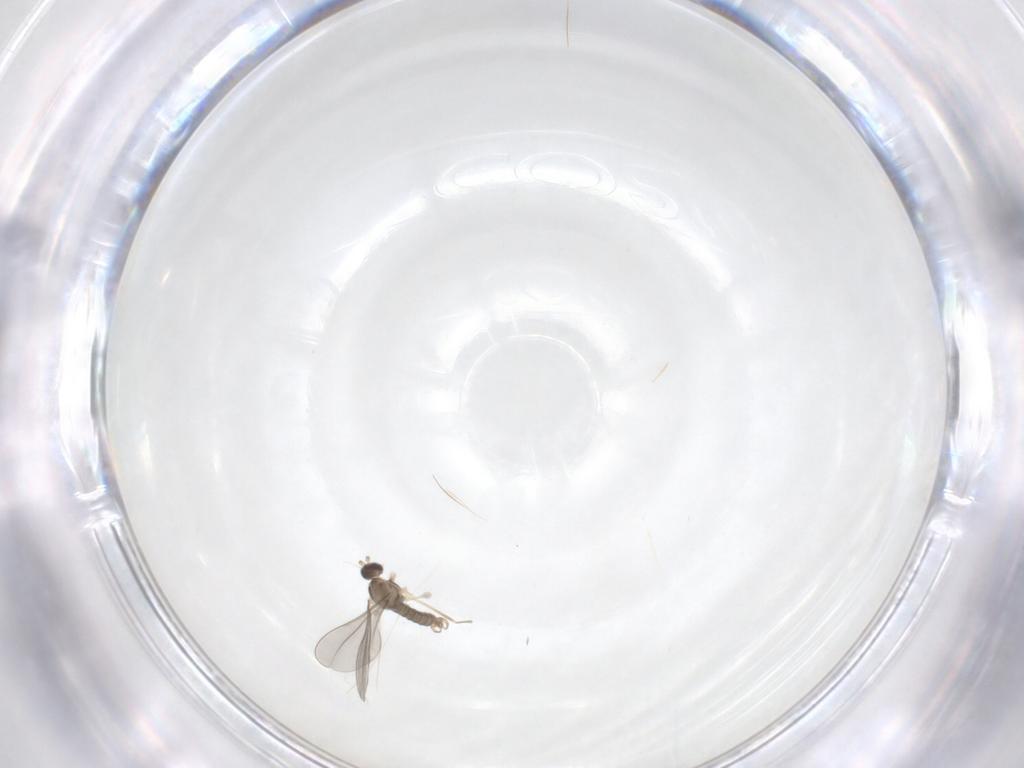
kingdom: Animalia
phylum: Arthropoda
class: Insecta
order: Diptera
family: Cecidomyiidae
